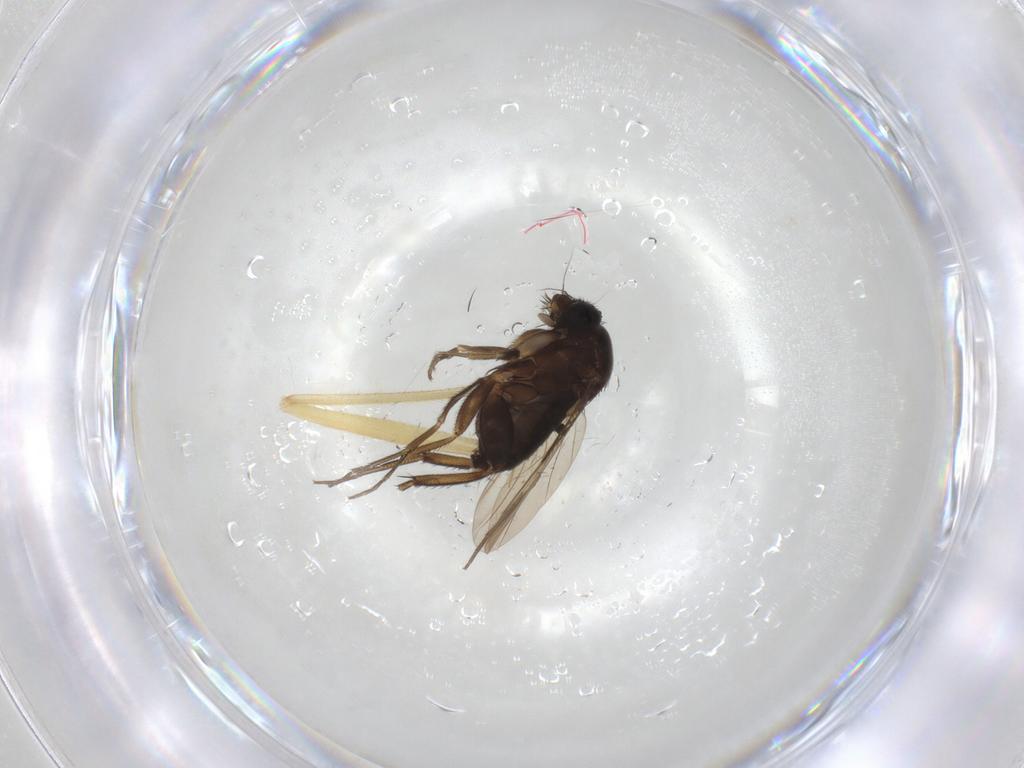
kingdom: Animalia
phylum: Arthropoda
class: Insecta
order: Diptera
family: Phoridae
